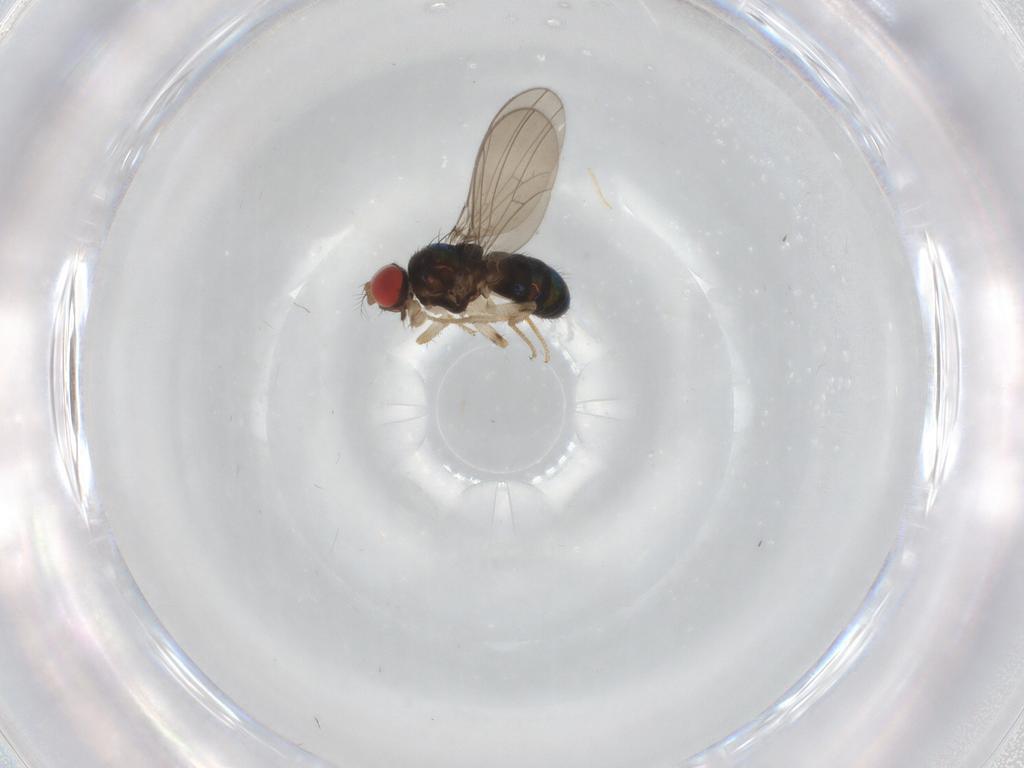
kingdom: Animalia
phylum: Arthropoda
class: Insecta
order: Diptera
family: Drosophilidae
